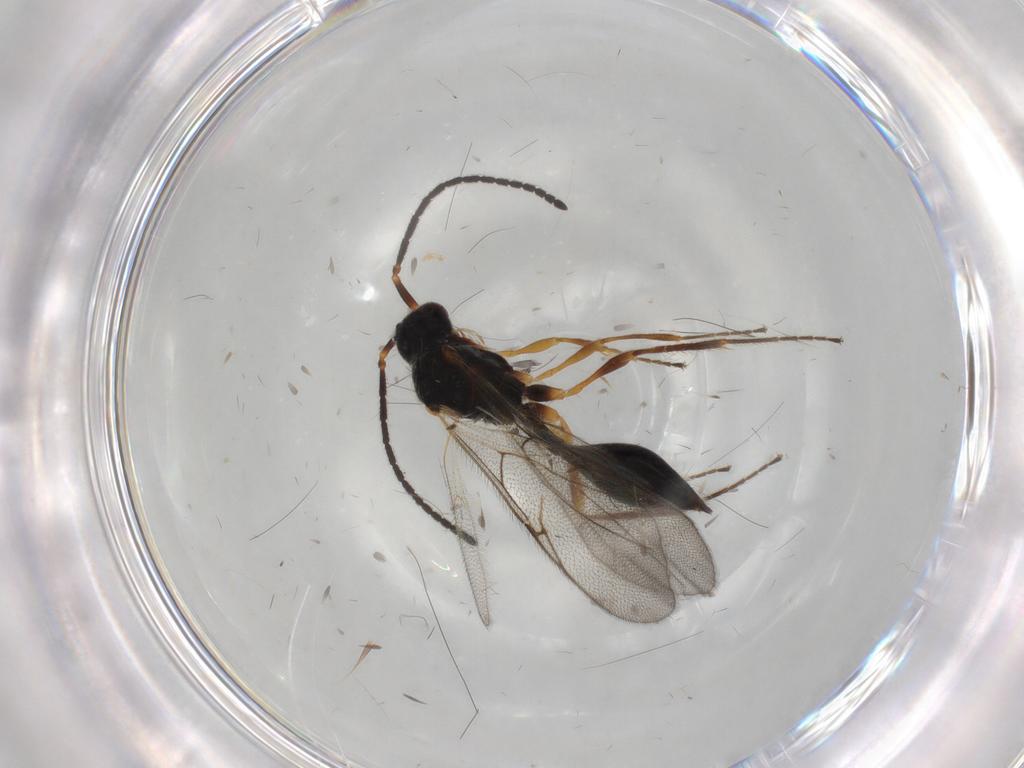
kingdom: Animalia
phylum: Arthropoda
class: Insecta
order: Hymenoptera
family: Diapriidae
